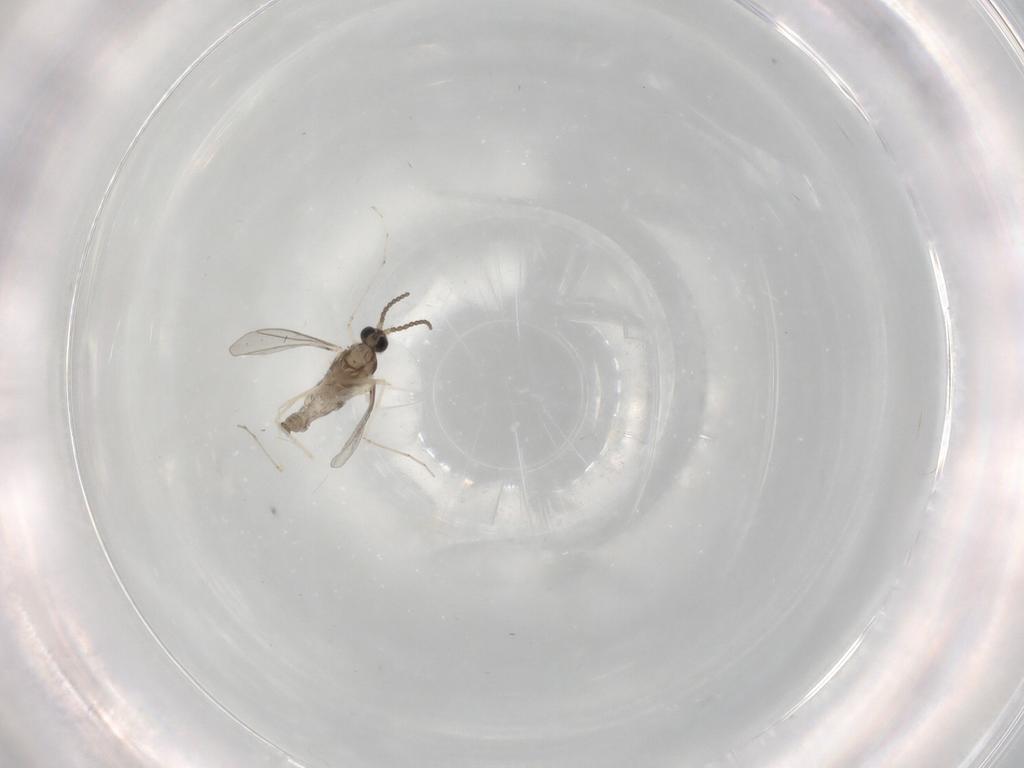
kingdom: Animalia
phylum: Arthropoda
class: Insecta
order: Diptera
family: Cecidomyiidae
